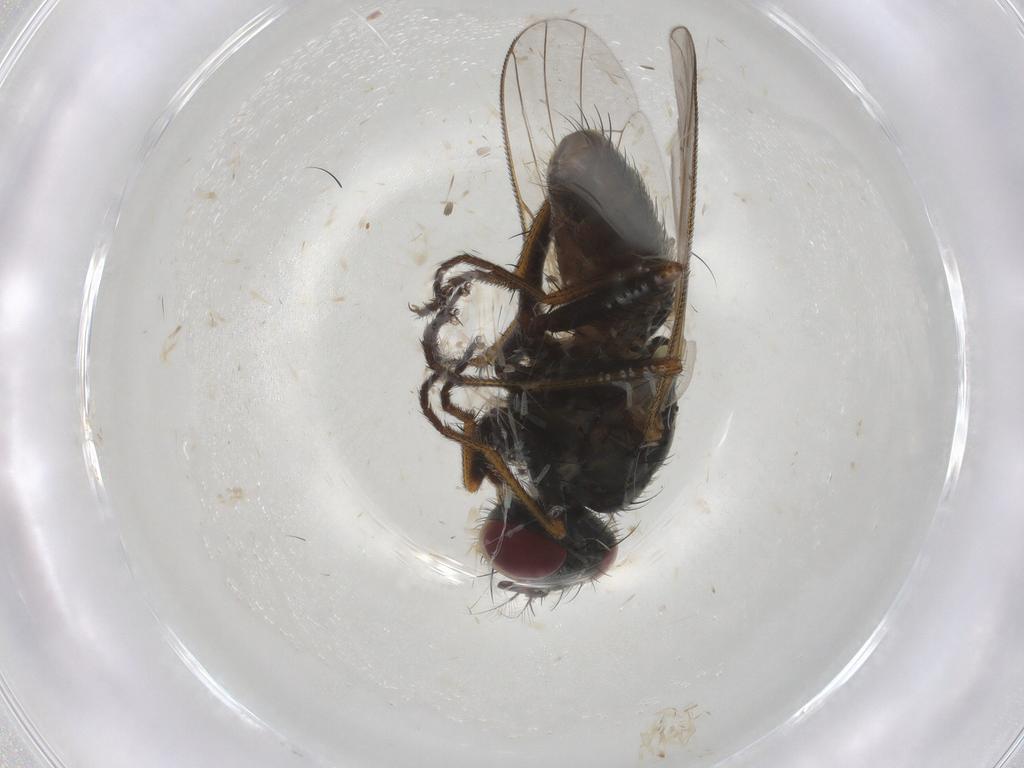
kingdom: Animalia
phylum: Arthropoda
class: Insecta
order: Diptera
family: Muscidae
